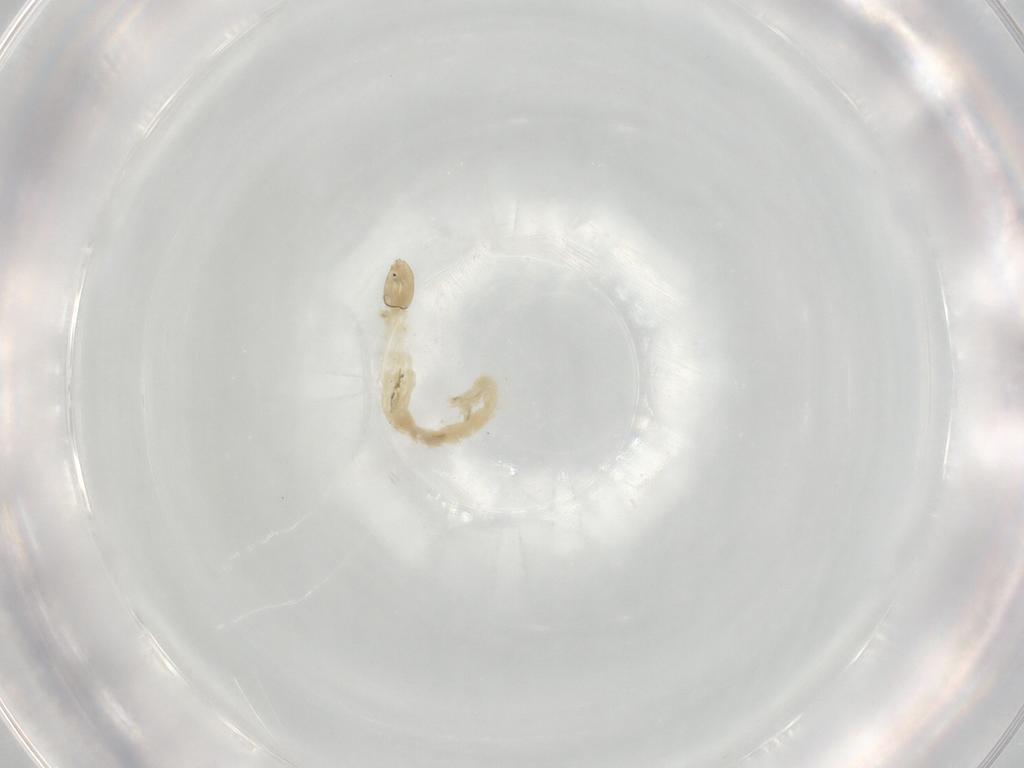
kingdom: Animalia
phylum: Arthropoda
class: Insecta
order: Diptera
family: Chironomidae
